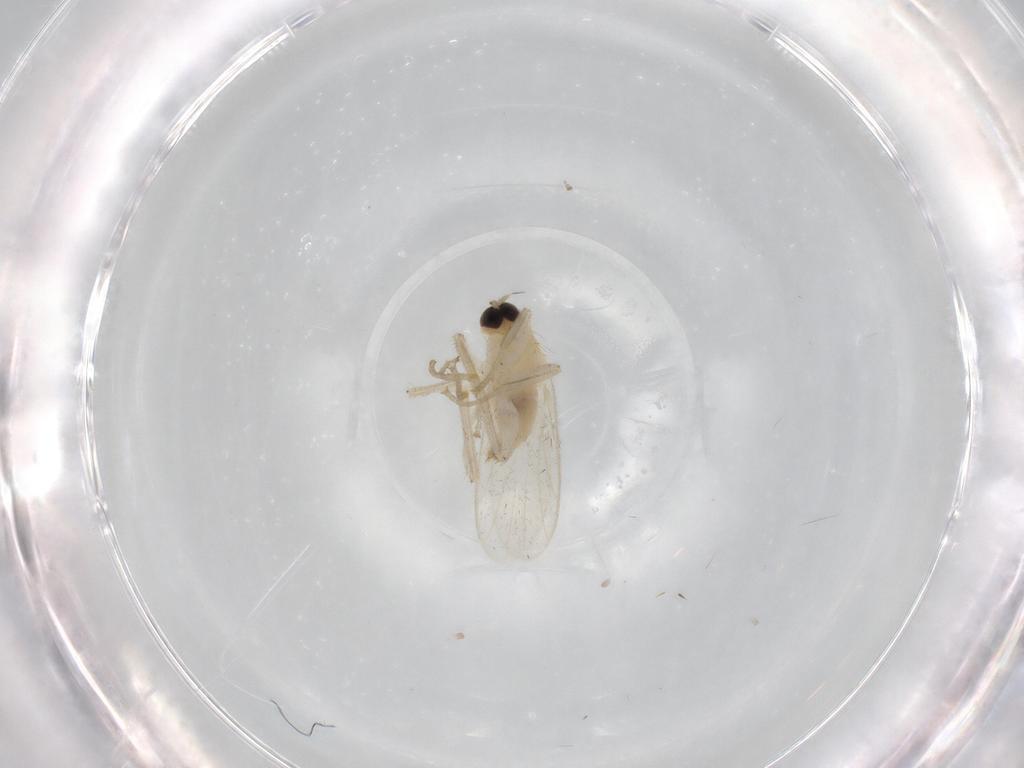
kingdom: Animalia
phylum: Arthropoda
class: Insecta
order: Diptera
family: Hybotidae
